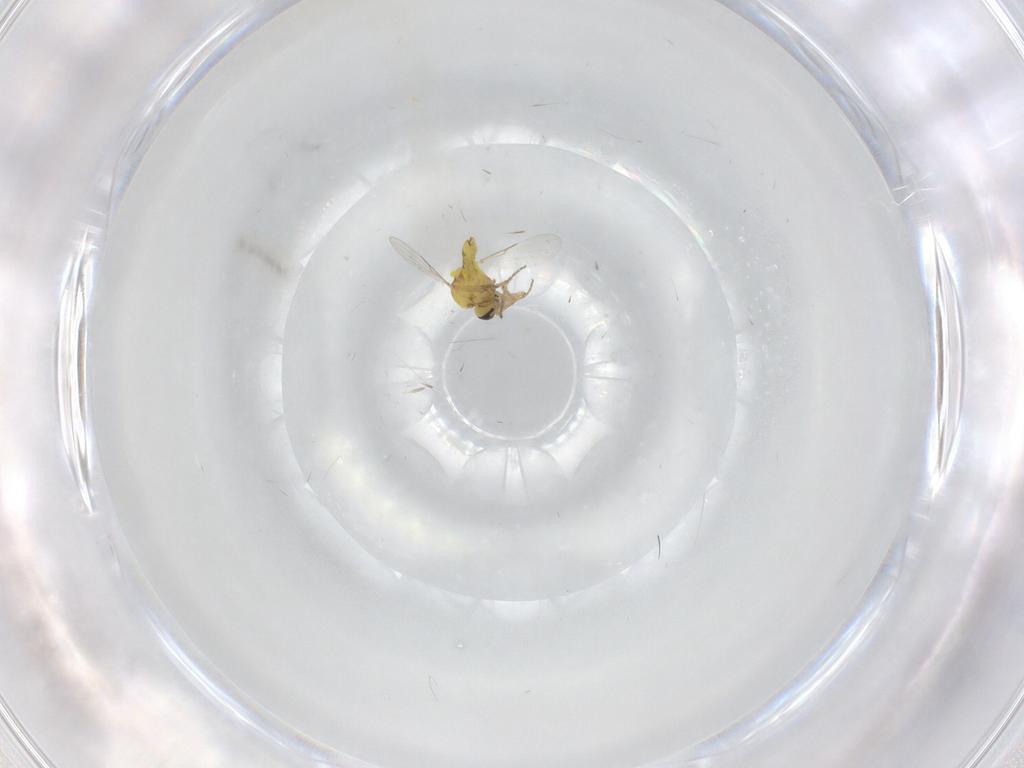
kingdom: Animalia
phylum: Arthropoda
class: Insecta
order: Diptera
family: Ceratopogonidae
